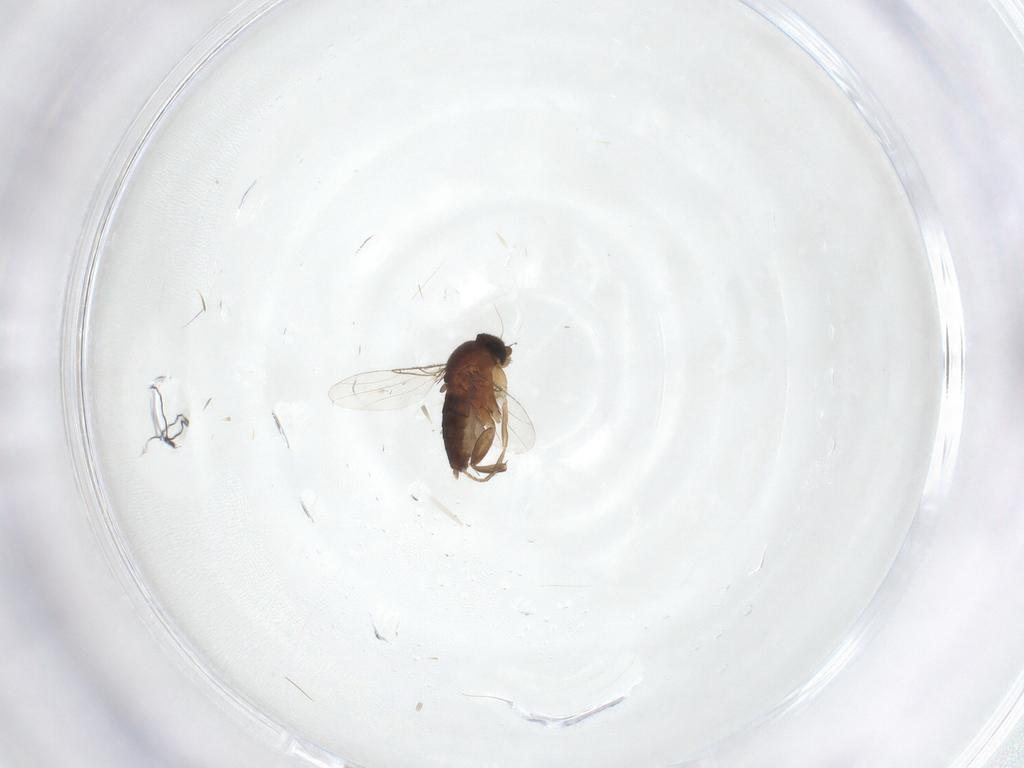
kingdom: Animalia
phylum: Arthropoda
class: Insecta
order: Diptera
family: Phoridae
